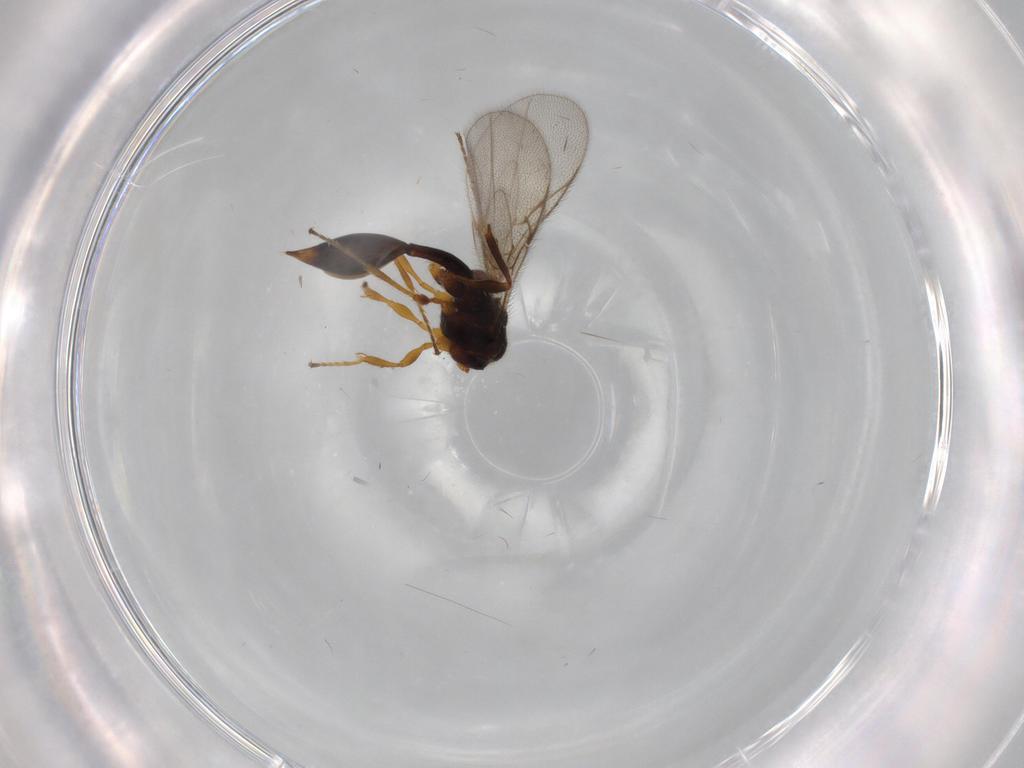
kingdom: Animalia
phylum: Arthropoda
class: Insecta
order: Hymenoptera
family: Diapriidae
